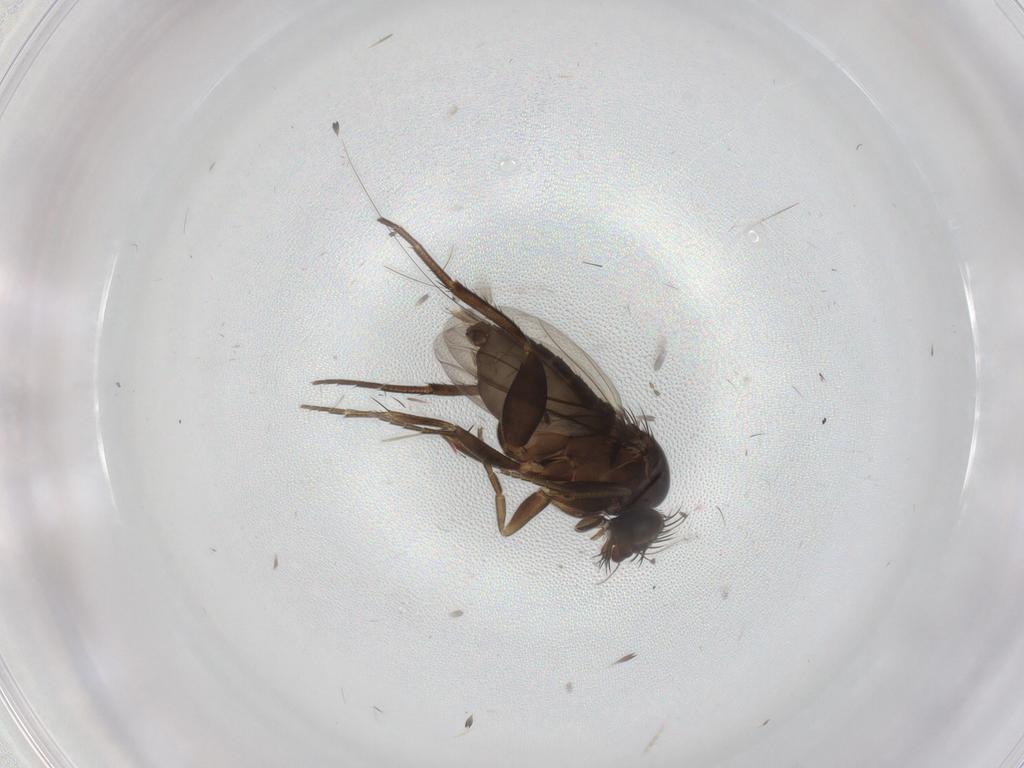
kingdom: Animalia
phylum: Arthropoda
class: Insecta
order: Diptera
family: Phoridae
